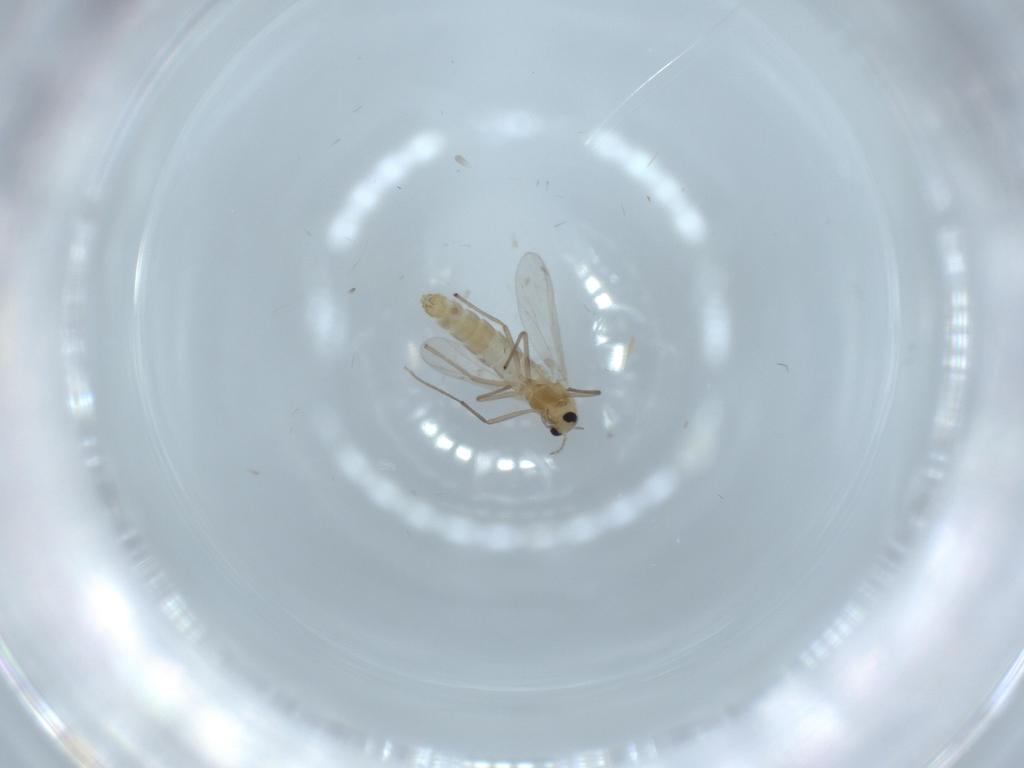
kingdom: Animalia
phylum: Arthropoda
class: Insecta
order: Diptera
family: Chironomidae
